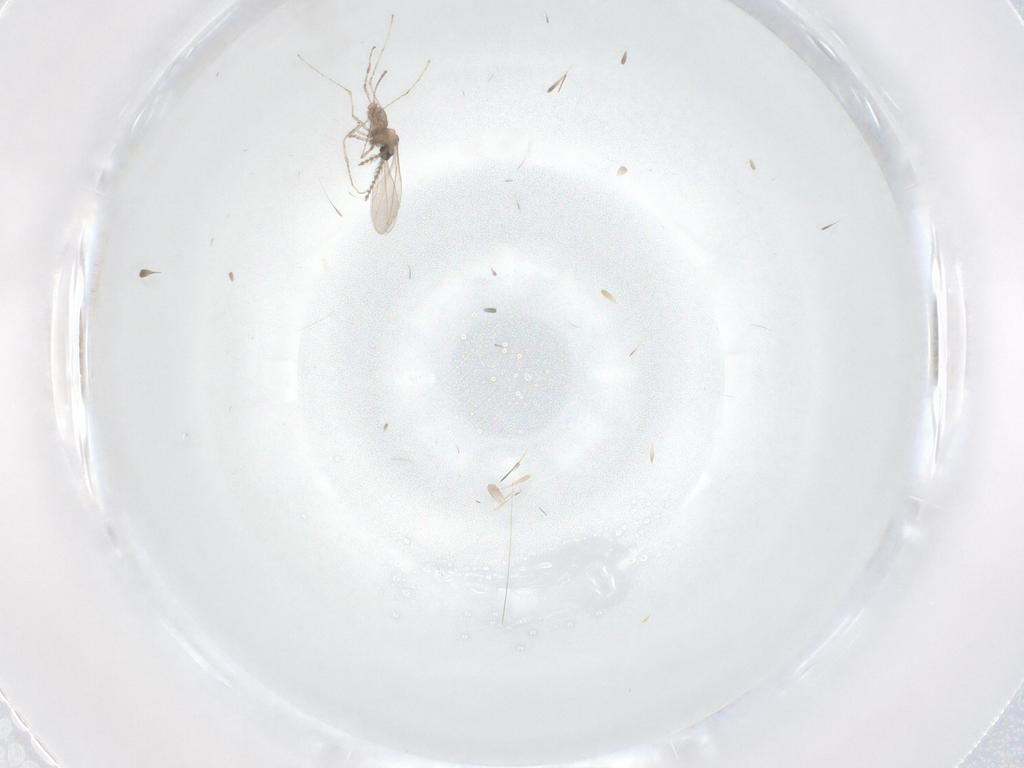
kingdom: Animalia
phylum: Arthropoda
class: Insecta
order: Diptera
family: Cecidomyiidae
